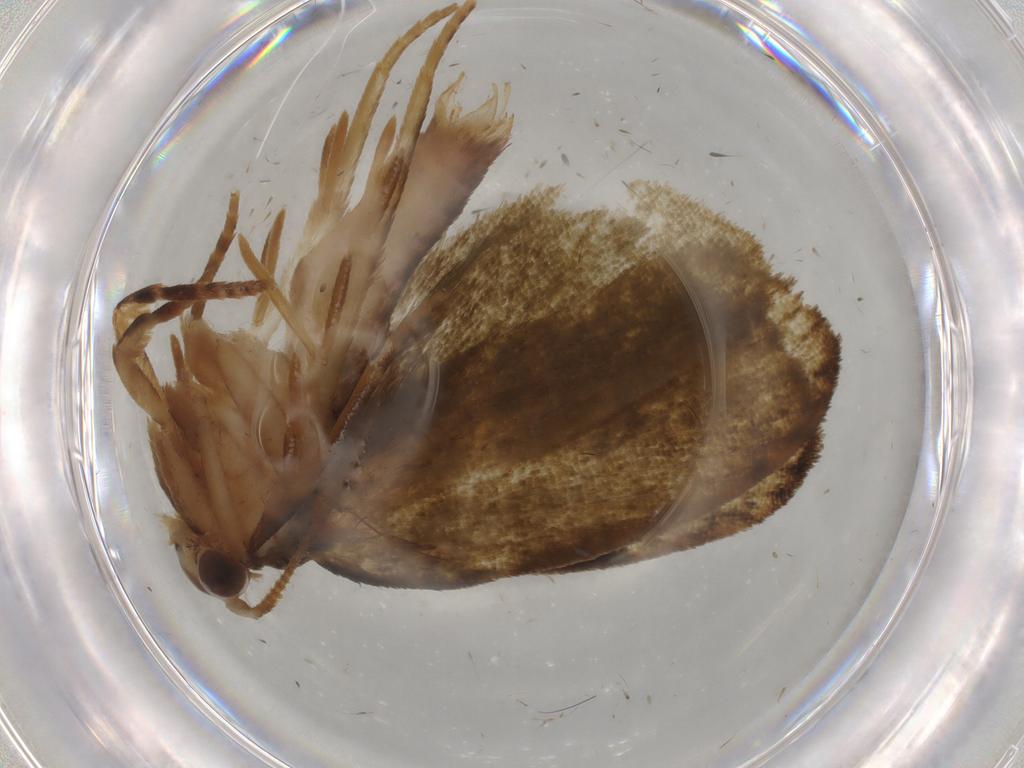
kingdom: Animalia
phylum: Arthropoda
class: Insecta
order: Lepidoptera
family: Geometridae
